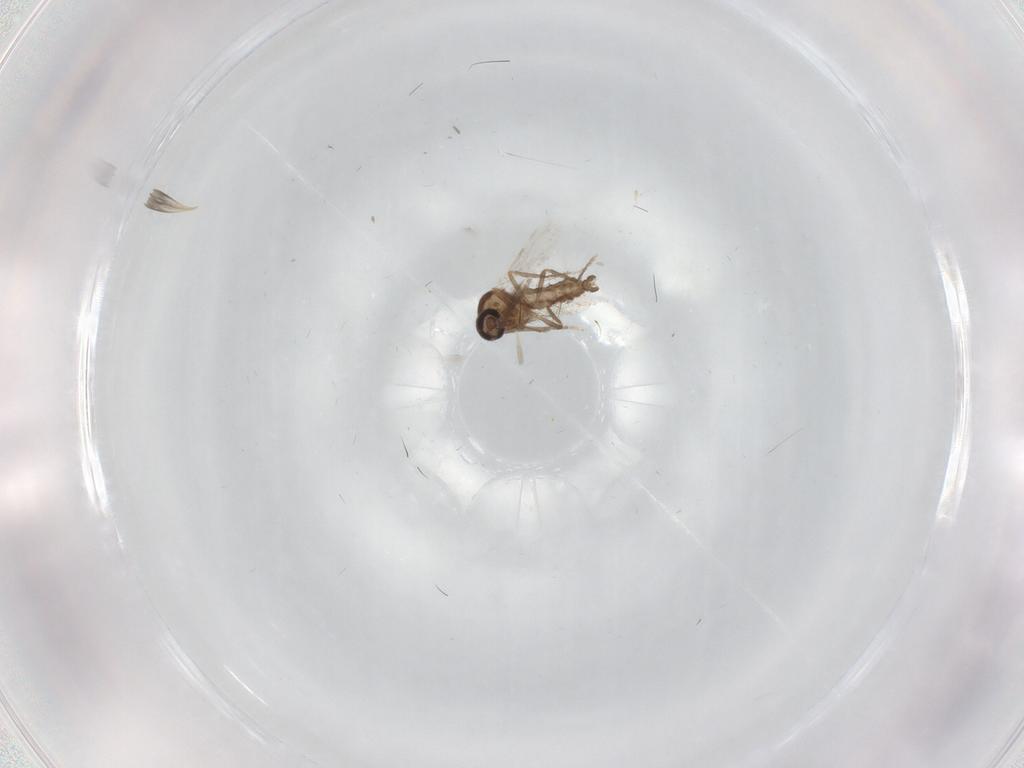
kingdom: Animalia
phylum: Arthropoda
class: Insecta
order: Diptera
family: Ceratopogonidae
